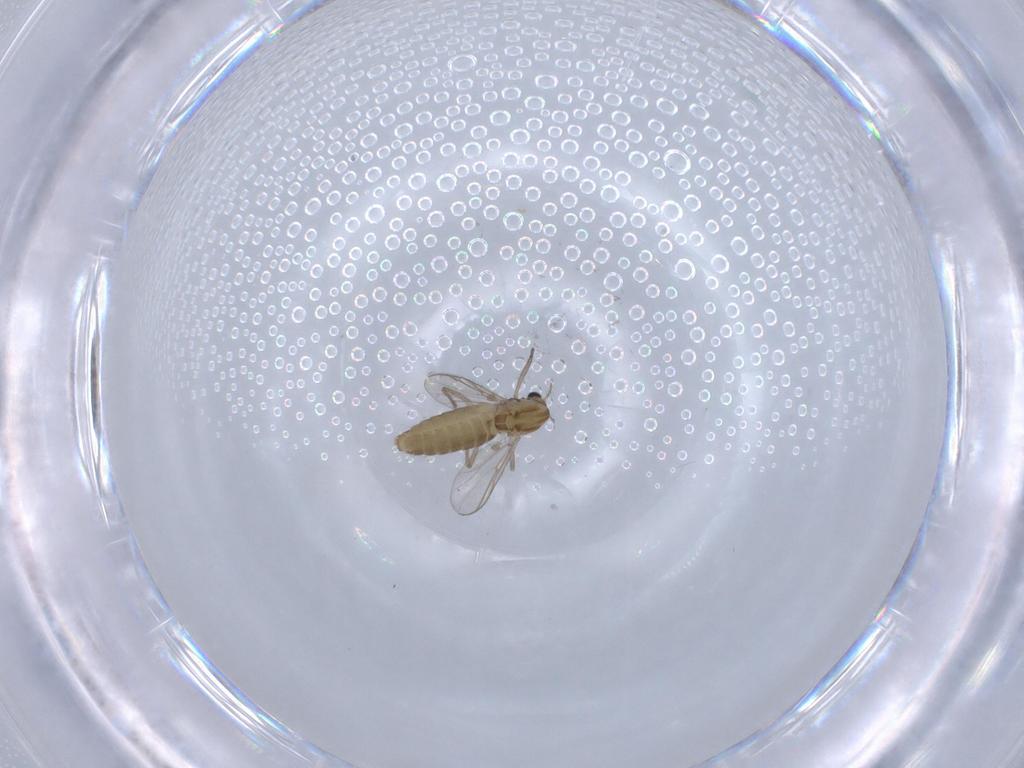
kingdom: Animalia
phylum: Arthropoda
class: Insecta
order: Diptera
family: Chironomidae
